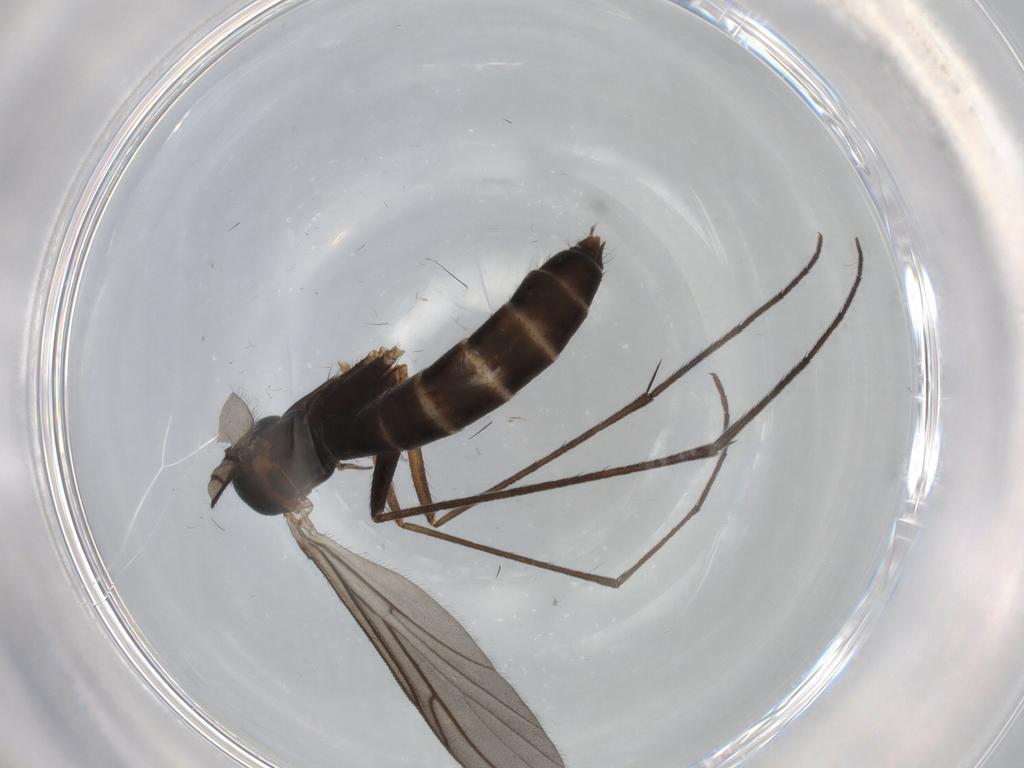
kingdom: Animalia
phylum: Arthropoda
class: Insecta
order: Diptera
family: Ditomyiidae
